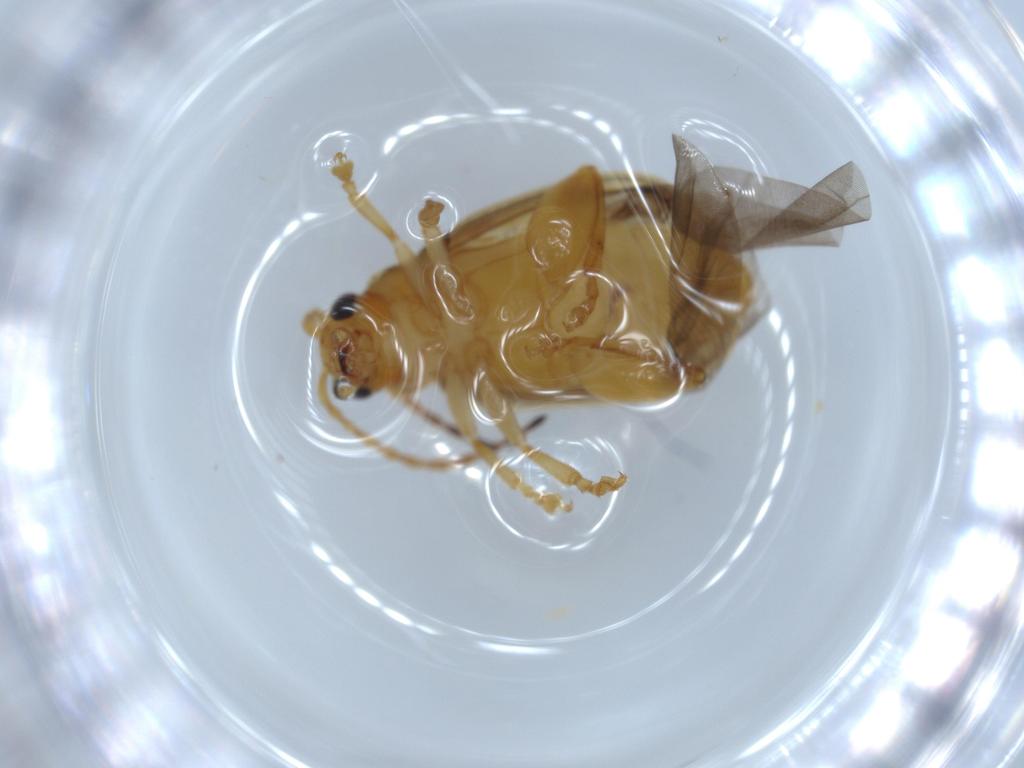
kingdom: Animalia
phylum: Arthropoda
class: Insecta
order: Coleoptera
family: Chrysomelidae
